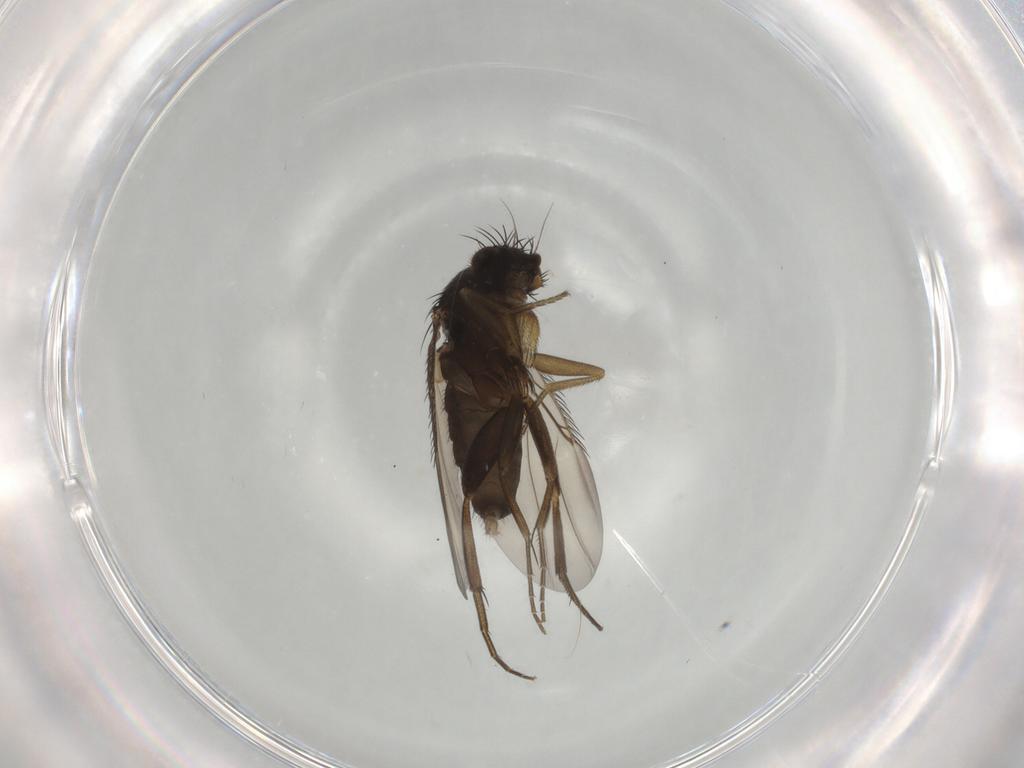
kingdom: Animalia
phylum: Arthropoda
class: Insecta
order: Diptera
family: Phoridae
